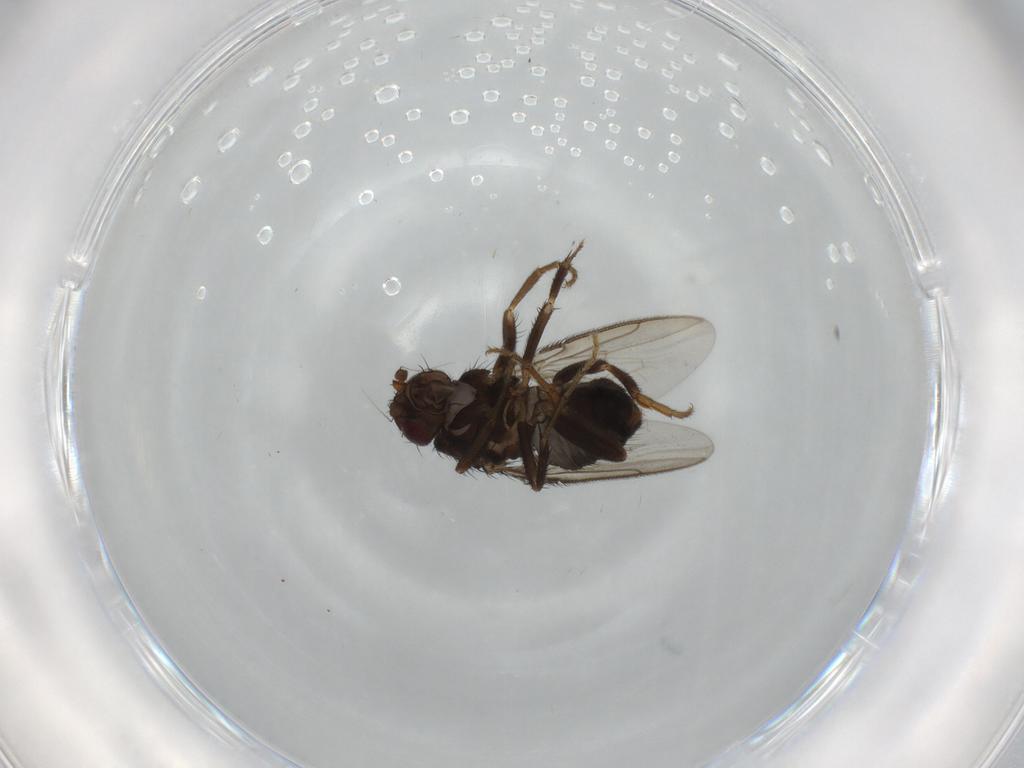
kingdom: Animalia
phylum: Arthropoda
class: Insecta
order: Diptera
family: Sphaeroceridae
